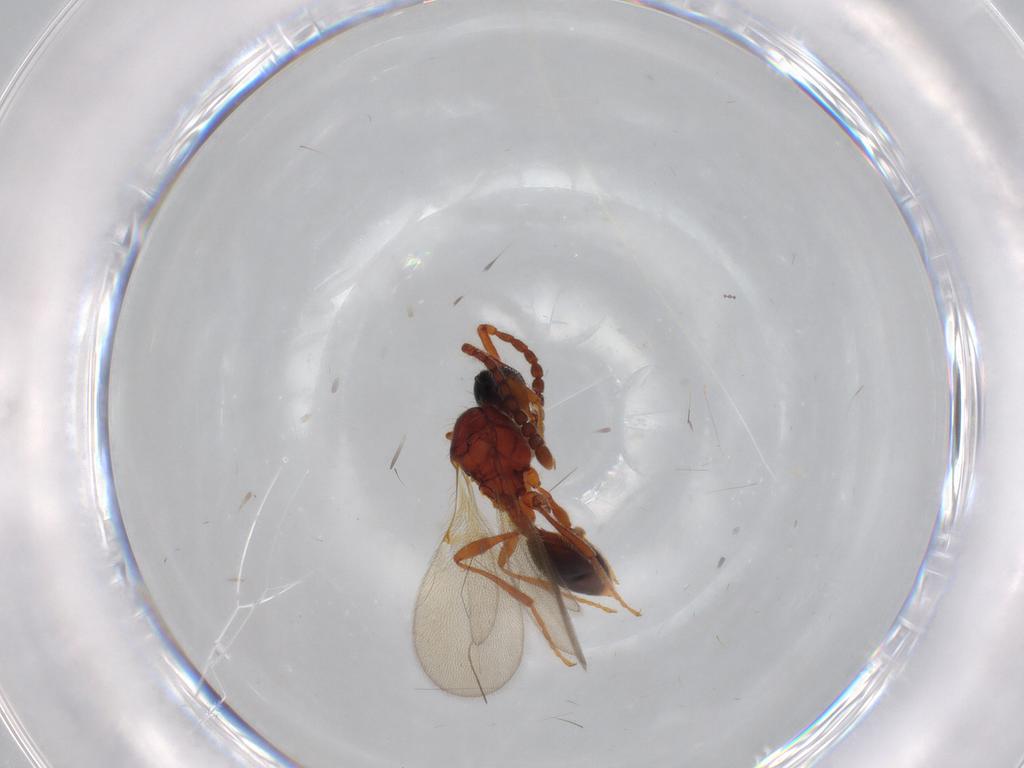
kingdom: Animalia
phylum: Arthropoda
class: Insecta
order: Hymenoptera
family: Diapriidae
